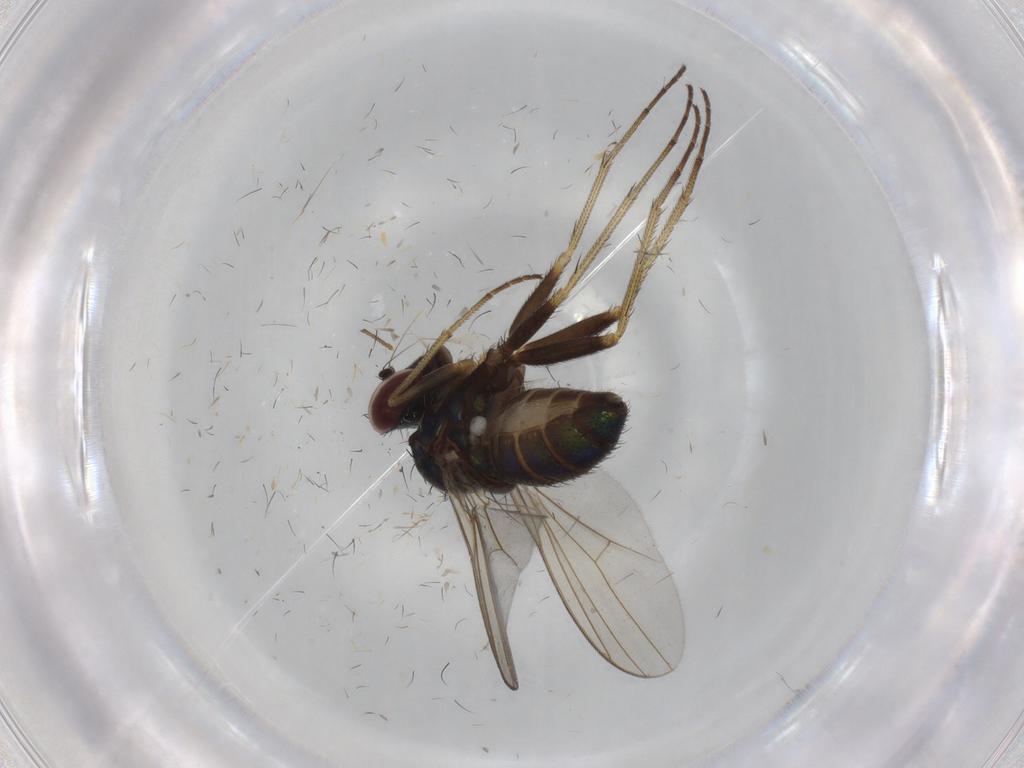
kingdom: Animalia
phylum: Arthropoda
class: Insecta
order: Diptera
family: Dolichopodidae
